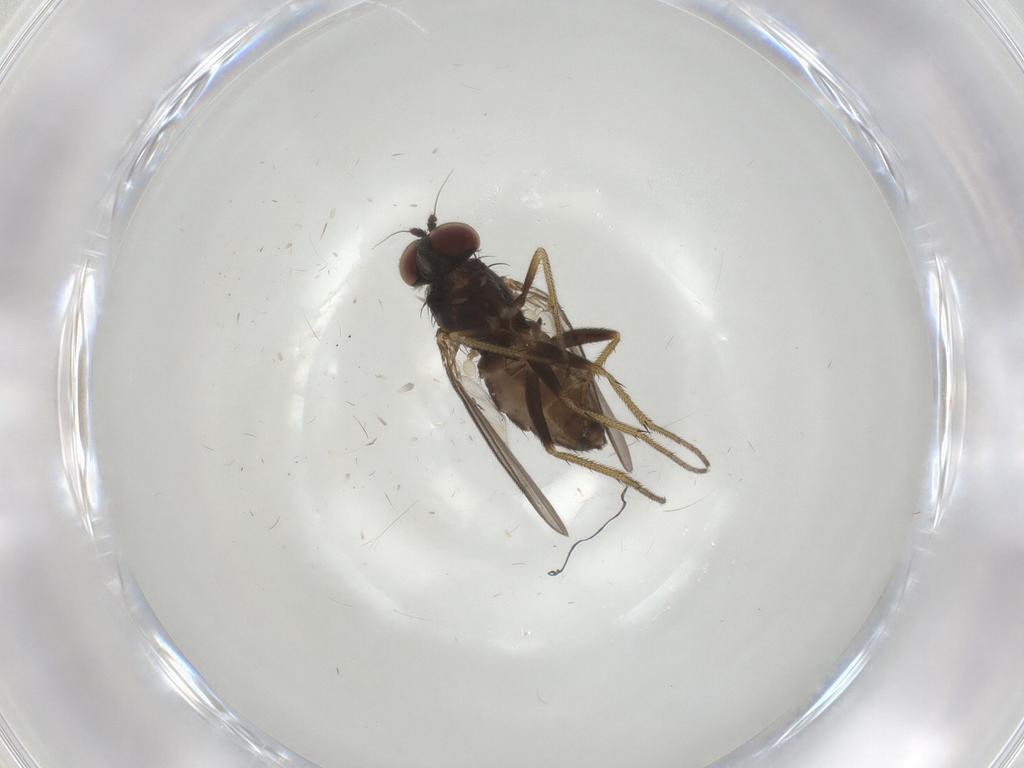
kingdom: Animalia
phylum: Arthropoda
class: Insecta
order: Diptera
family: Dolichopodidae
